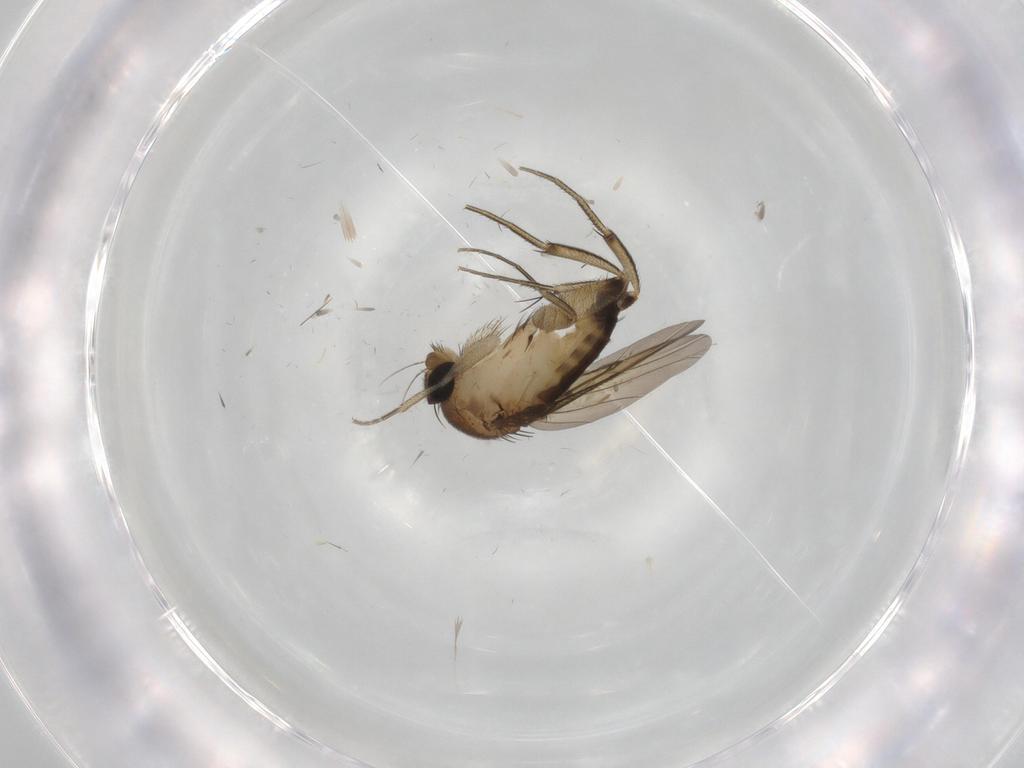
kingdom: Animalia
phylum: Arthropoda
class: Insecta
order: Diptera
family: Phoridae
